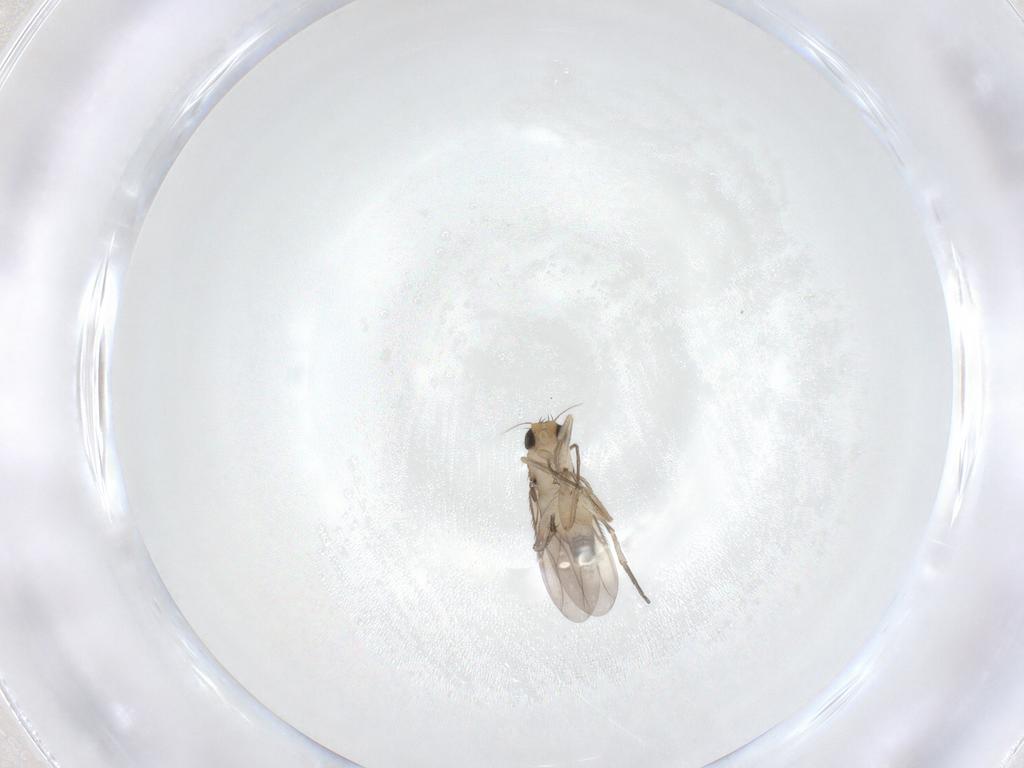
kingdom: Animalia
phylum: Arthropoda
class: Insecta
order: Diptera
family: Phoridae
